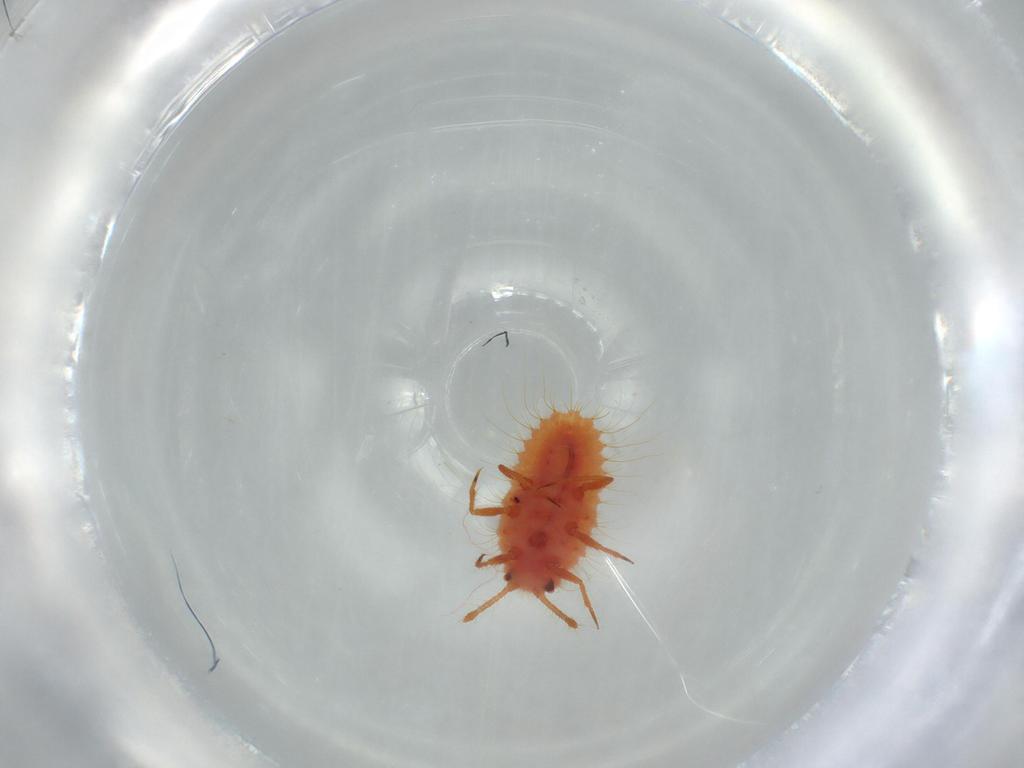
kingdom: Animalia
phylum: Arthropoda
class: Insecta
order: Hemiptera
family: Coccoidea_incertae_sedis
